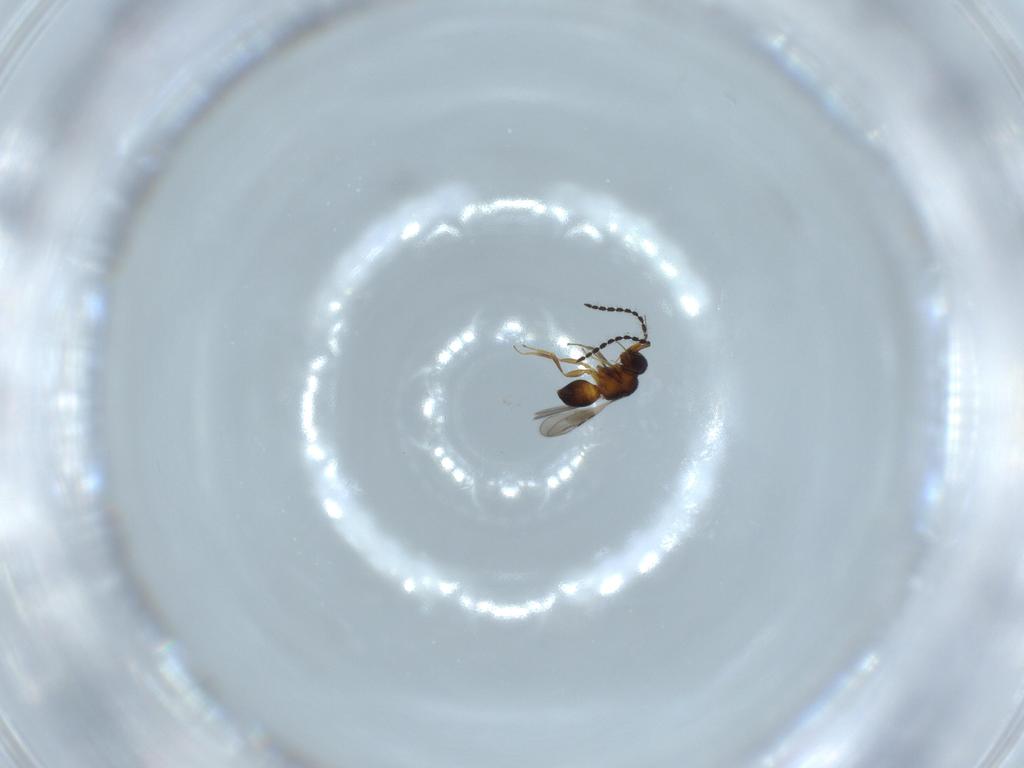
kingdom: Animalia
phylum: Arthropoda
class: Insecta
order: Hymenoptera
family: Ceraphronidae
